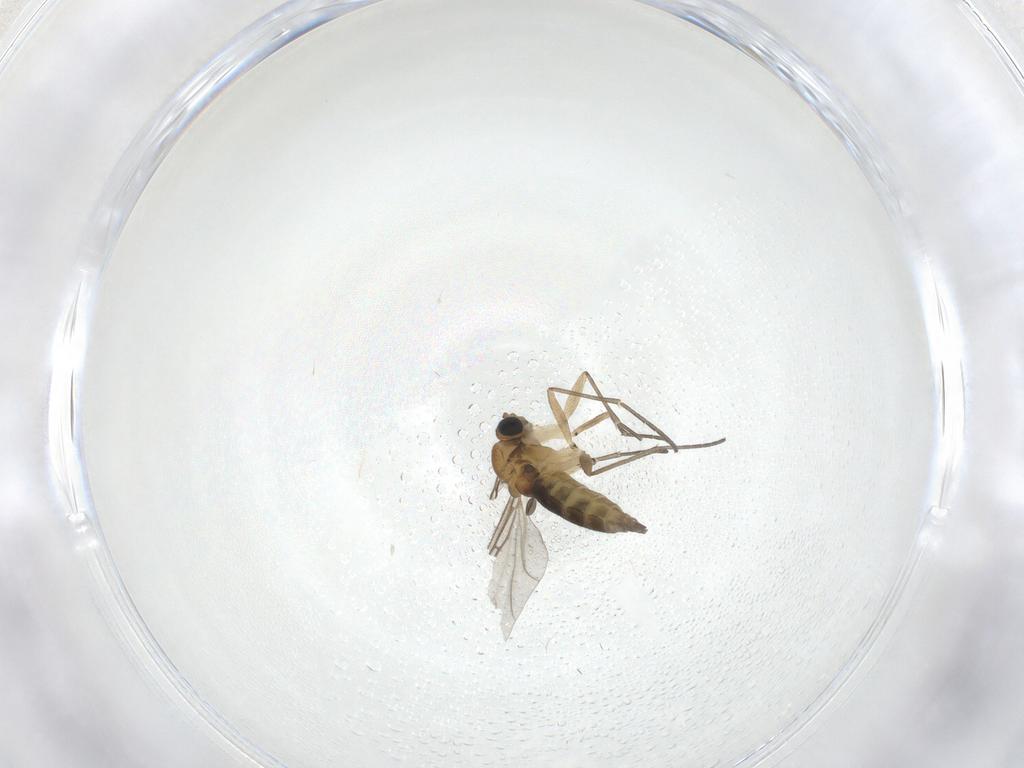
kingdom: Animalia
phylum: Arthropoda
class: Insecta
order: Diptera
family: Sciaridae
